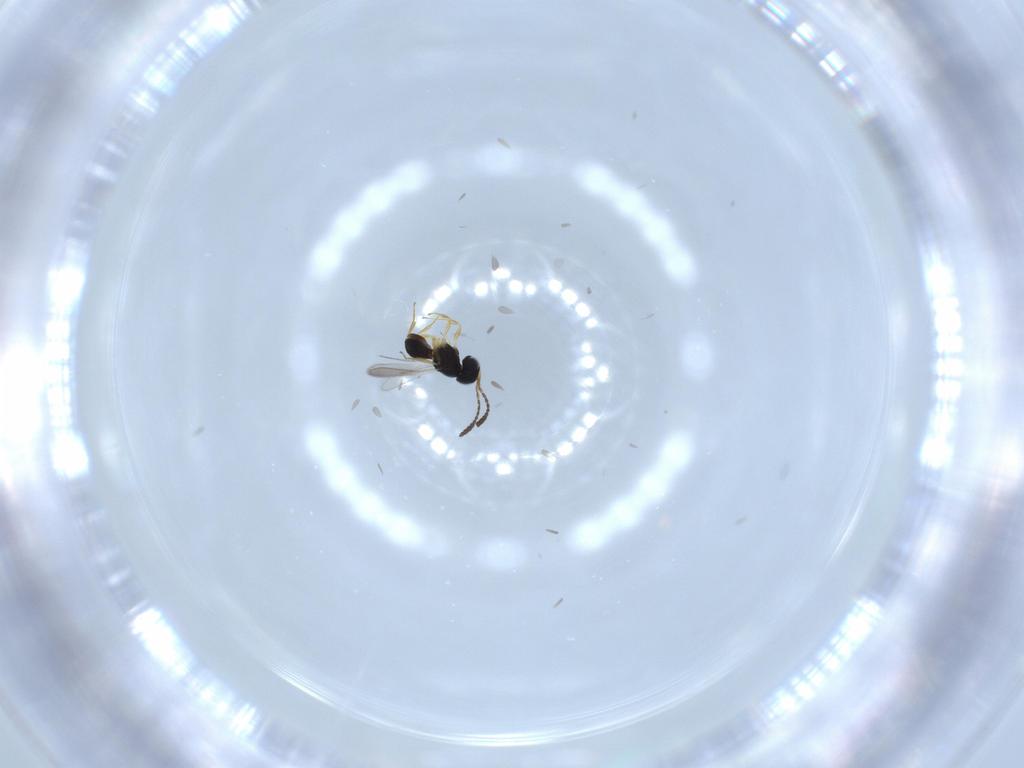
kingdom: Animalia
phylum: Arthropoda
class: Insecta
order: Hymenoptera
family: Scelionidae
